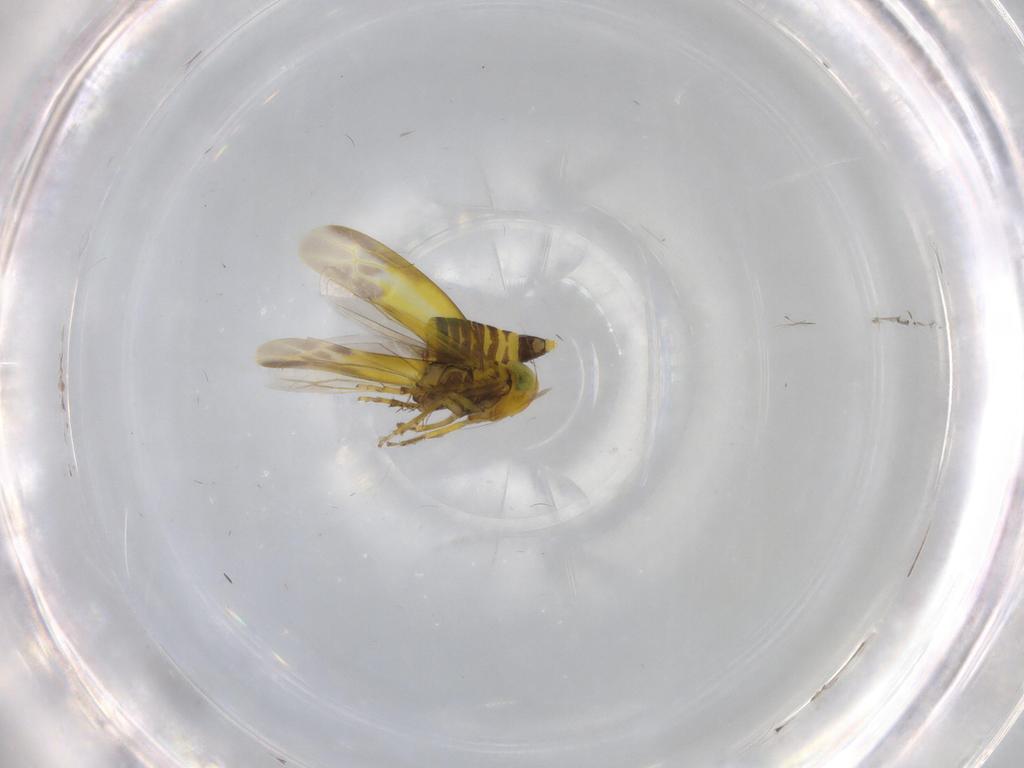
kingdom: Animalia
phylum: Arthropoda
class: Insecta
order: Hemiptera
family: Cicadellidae
